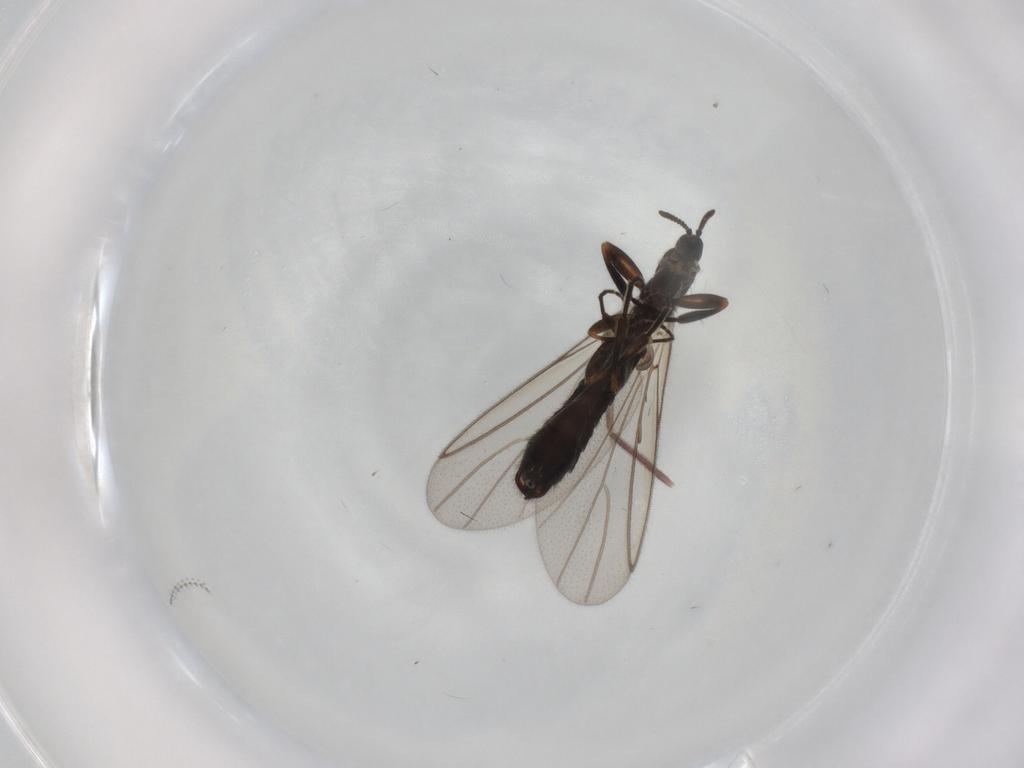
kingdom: Animalia
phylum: Arthropoda
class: Insecta
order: Diptera
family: Scatopsidae
